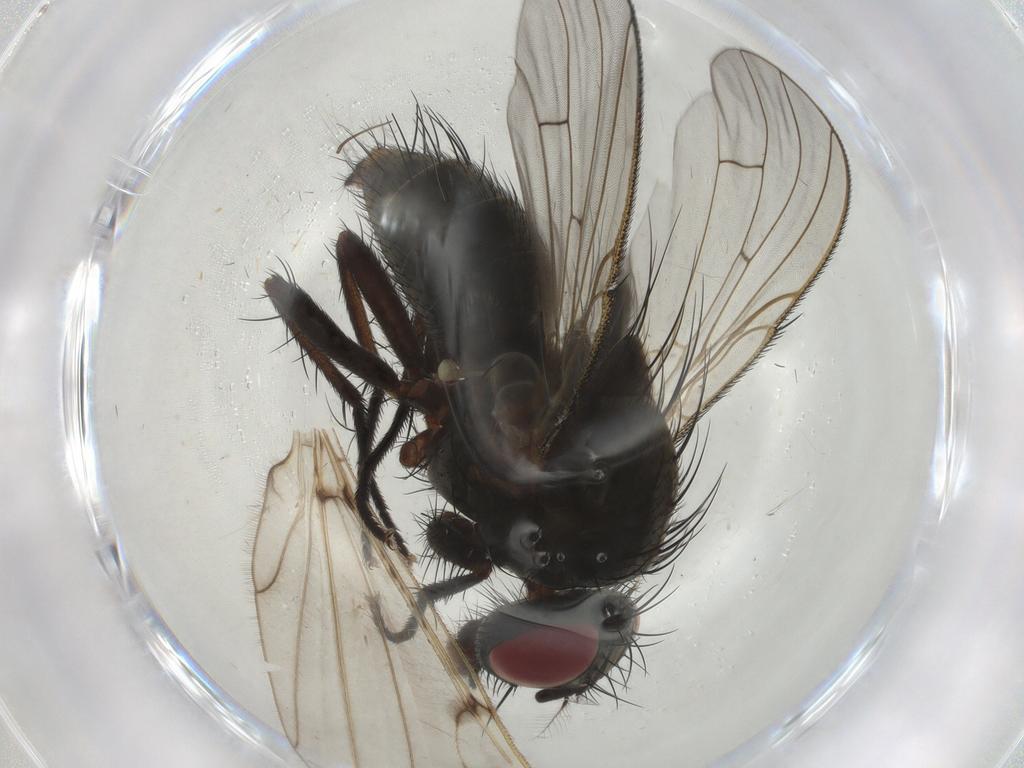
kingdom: Animalia
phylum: Arthropoda
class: Insecta
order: Diptera
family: Muscidae
